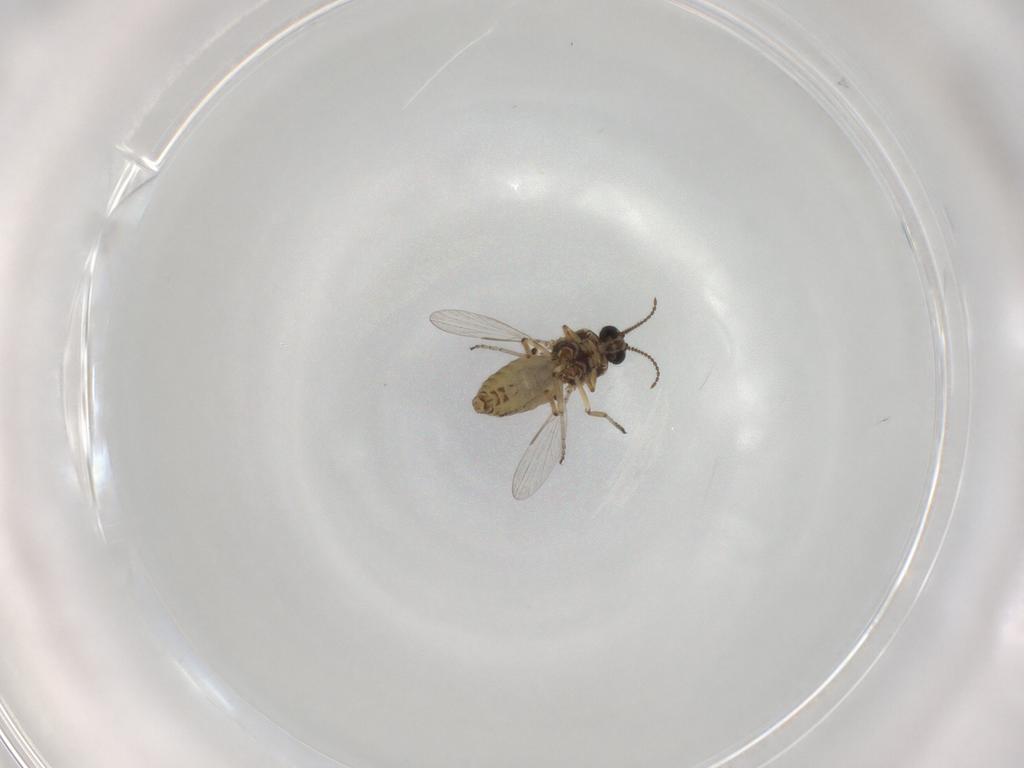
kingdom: Animalia
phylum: Arthropoda
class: Insecta
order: Diptera
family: Ceratopogonidae
